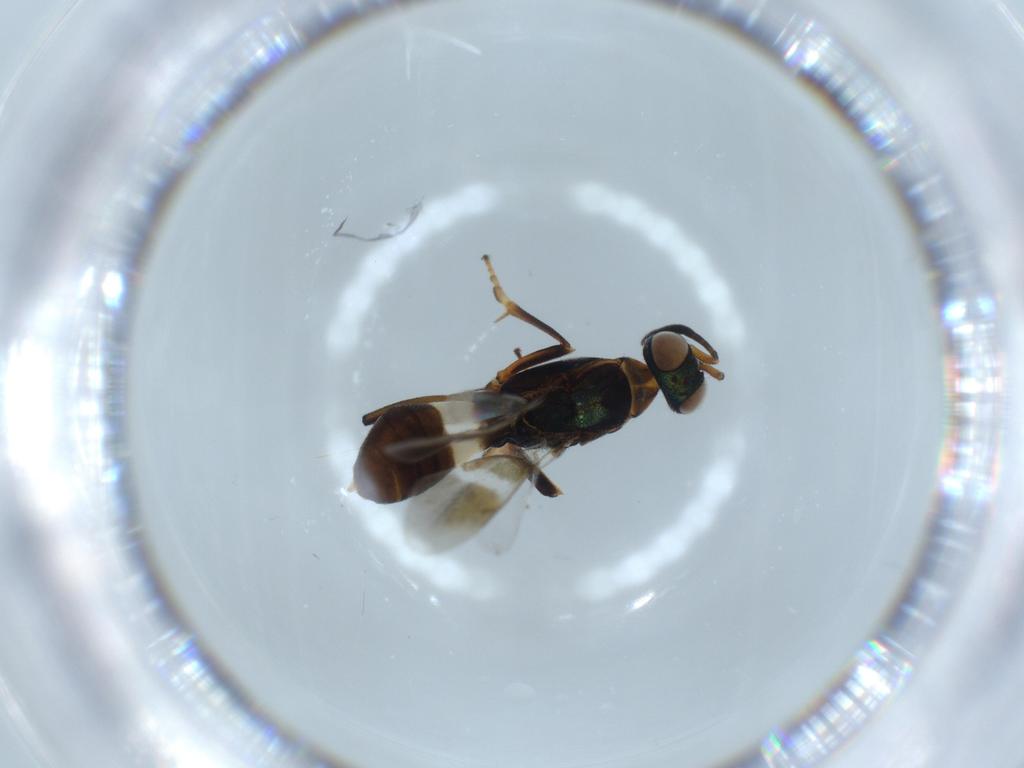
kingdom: Animalia
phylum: Arthropoda
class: Insecta
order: Hymenoptera
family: Eupelmidae
